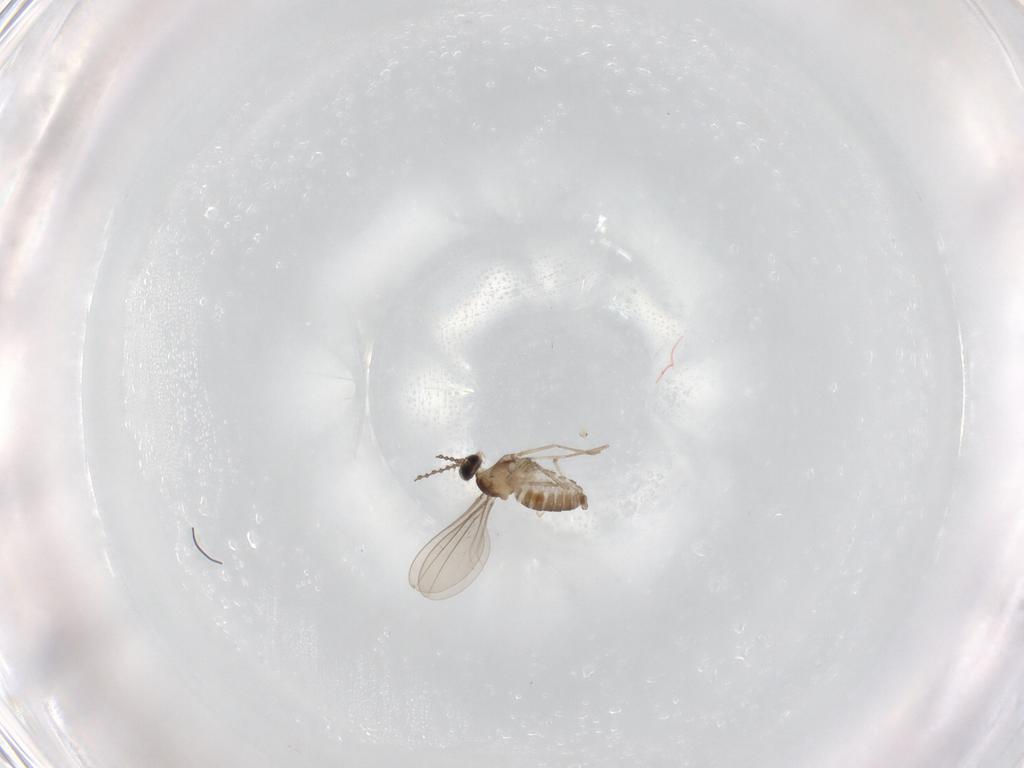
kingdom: Animalia
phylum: Arthropoda
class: Insecta
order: Diptera
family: Cecidomyiidae
